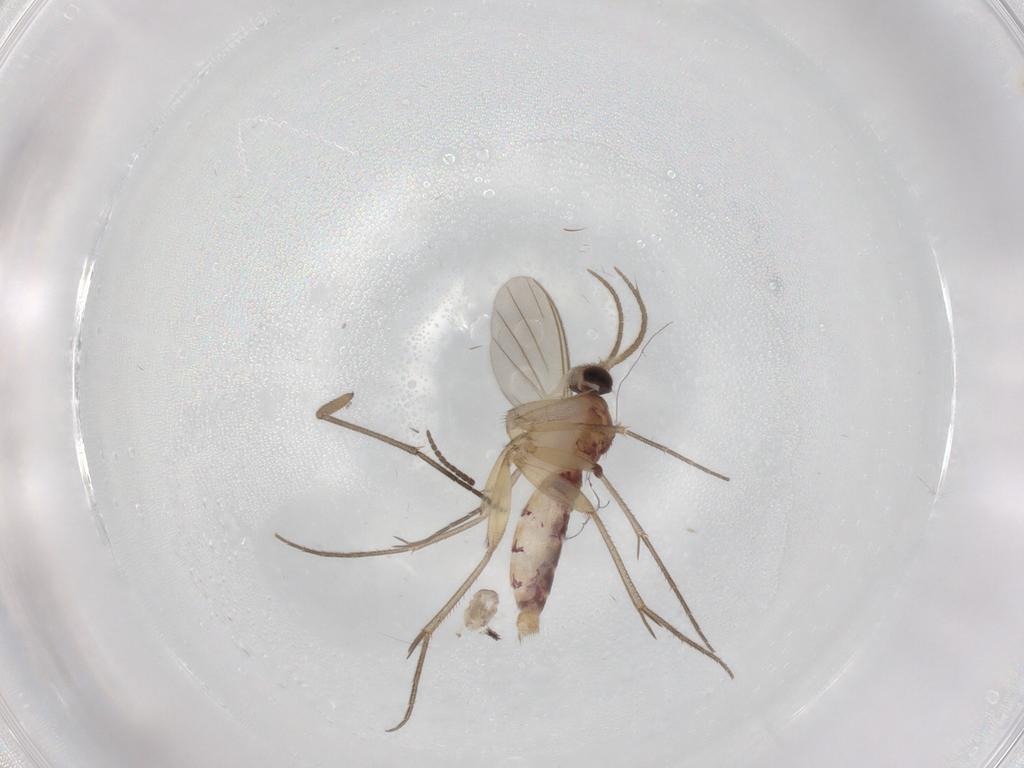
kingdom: Animalia
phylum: Arthropoda
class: Insecta
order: Diptera
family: Mycetophilidae
